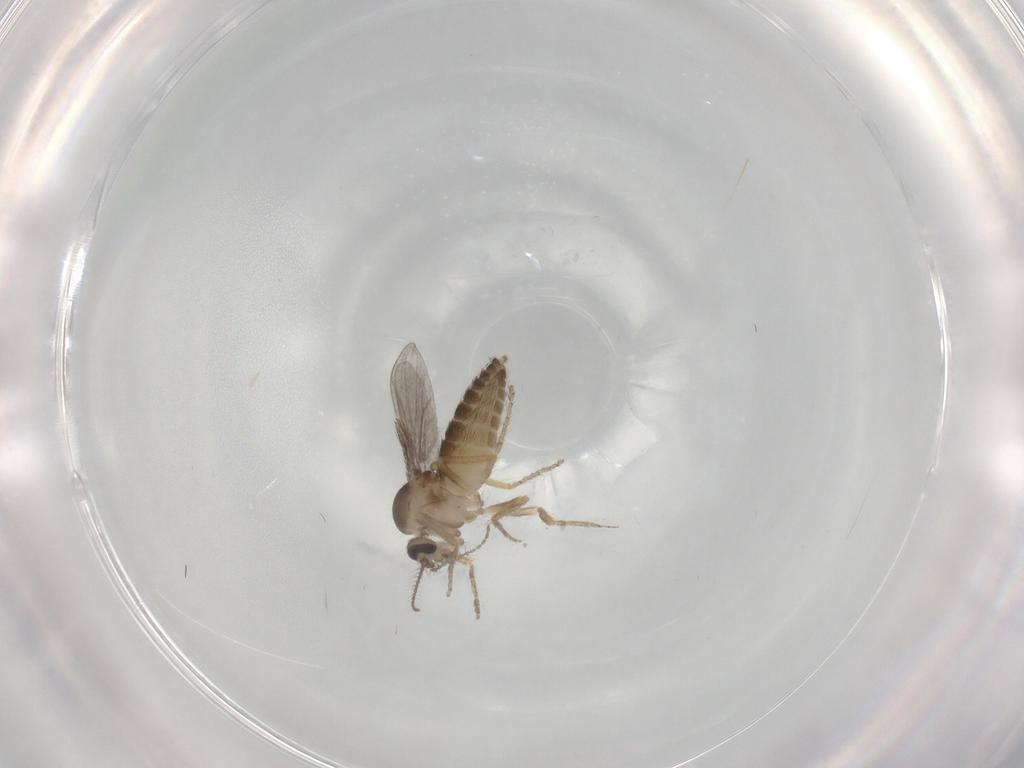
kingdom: Animalia
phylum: Arthropoda
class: Insecta
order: Diptera
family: Ceratopogonidae
